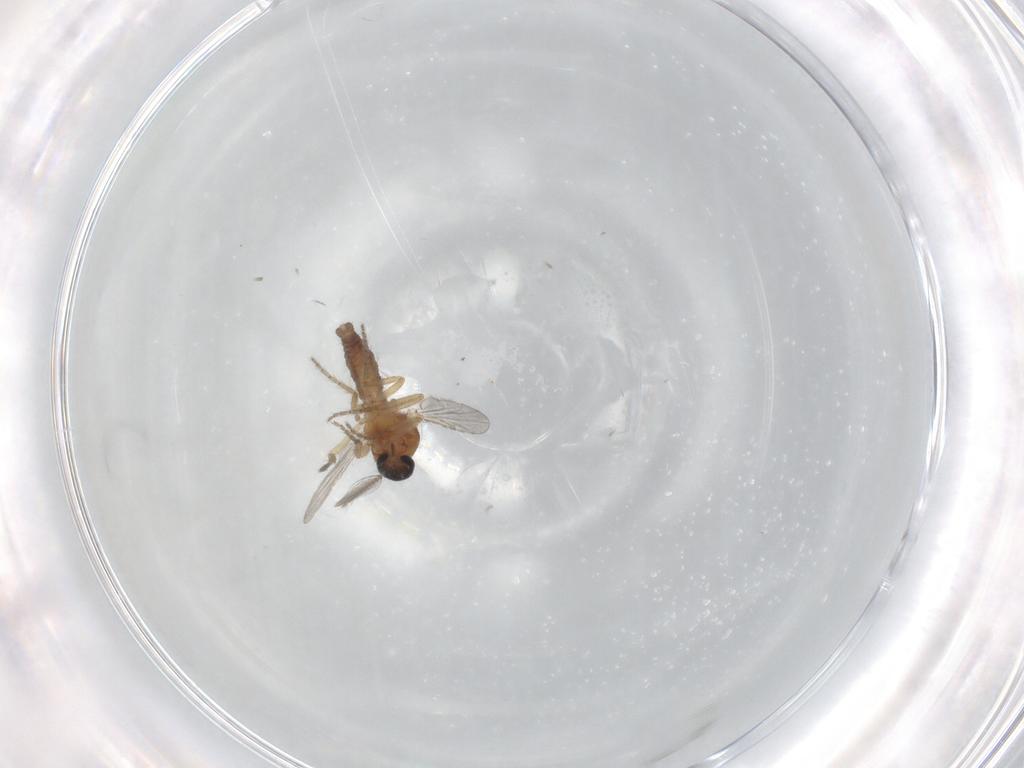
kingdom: Animalia
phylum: Arthropoda
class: Insecta
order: Diptera
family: Ceratopogonidae
